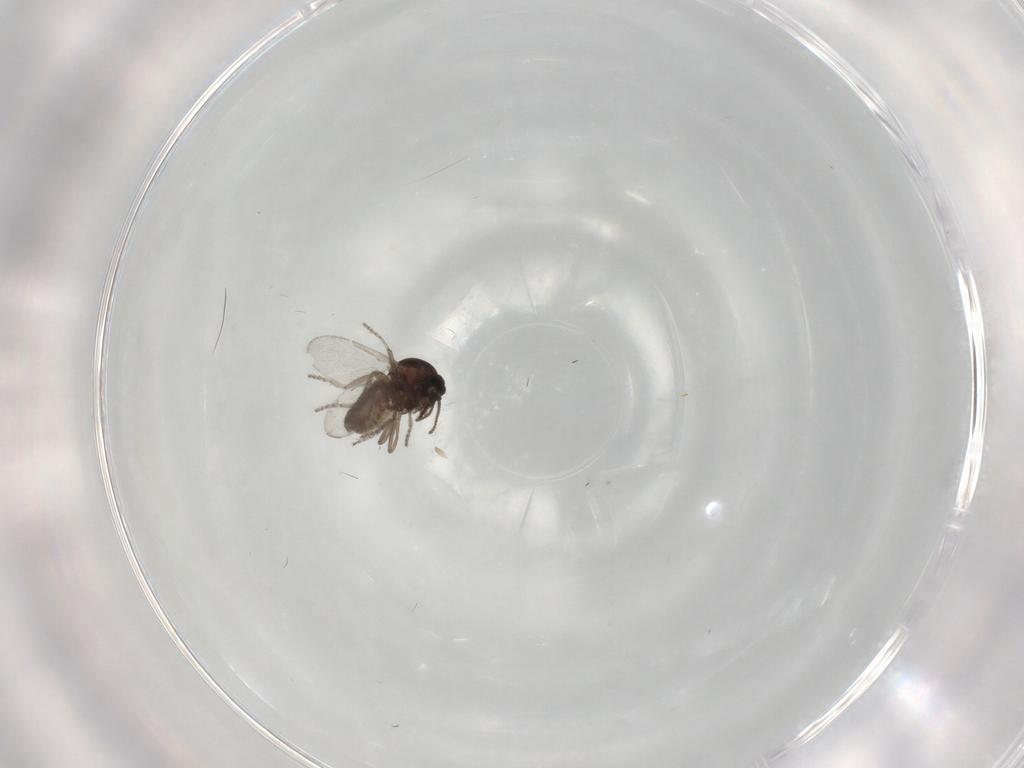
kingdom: Animalia
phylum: Arthropoda
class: Insecta
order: Diptera
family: Ceratopogonidae
